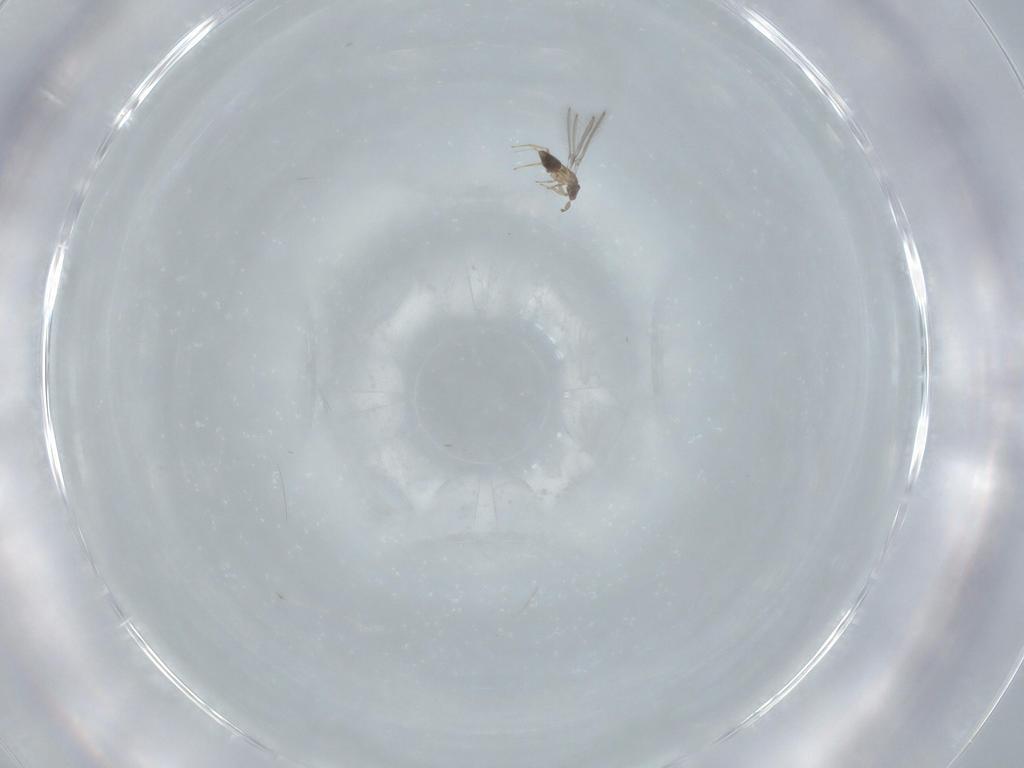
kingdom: Animalia
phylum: Arthropoda
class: Insecta
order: Hymenoptera
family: Mymaridae
